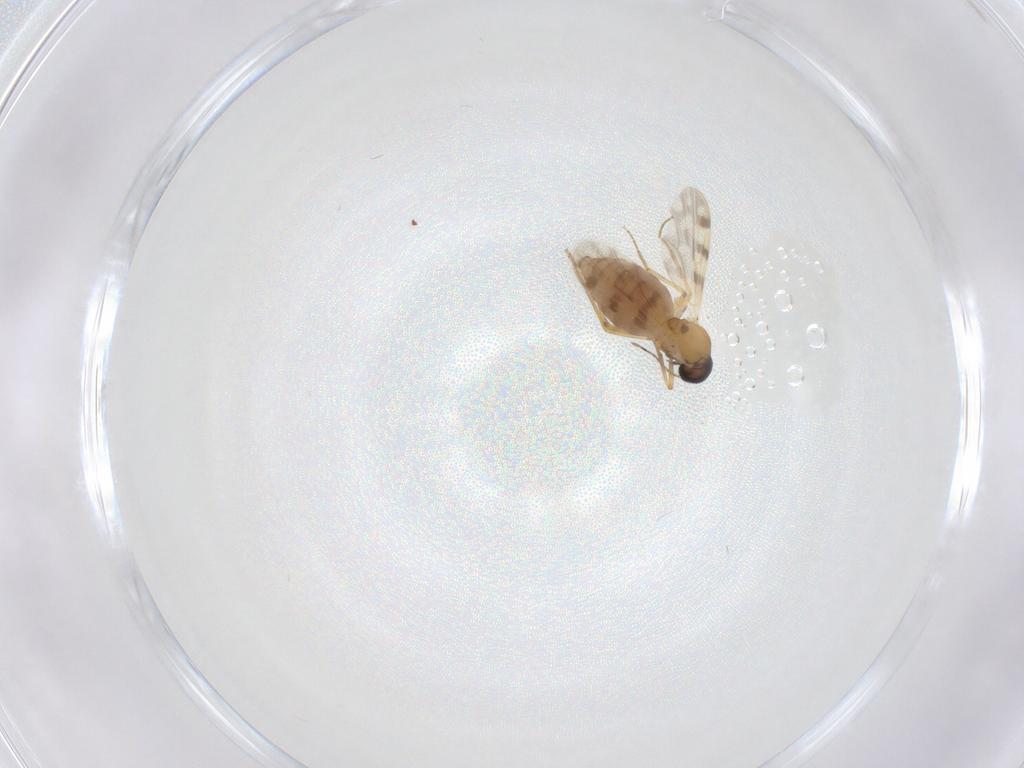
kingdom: Animalia
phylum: Arthropoda
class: Insecta
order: Diptera
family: Ceratopogonidae
